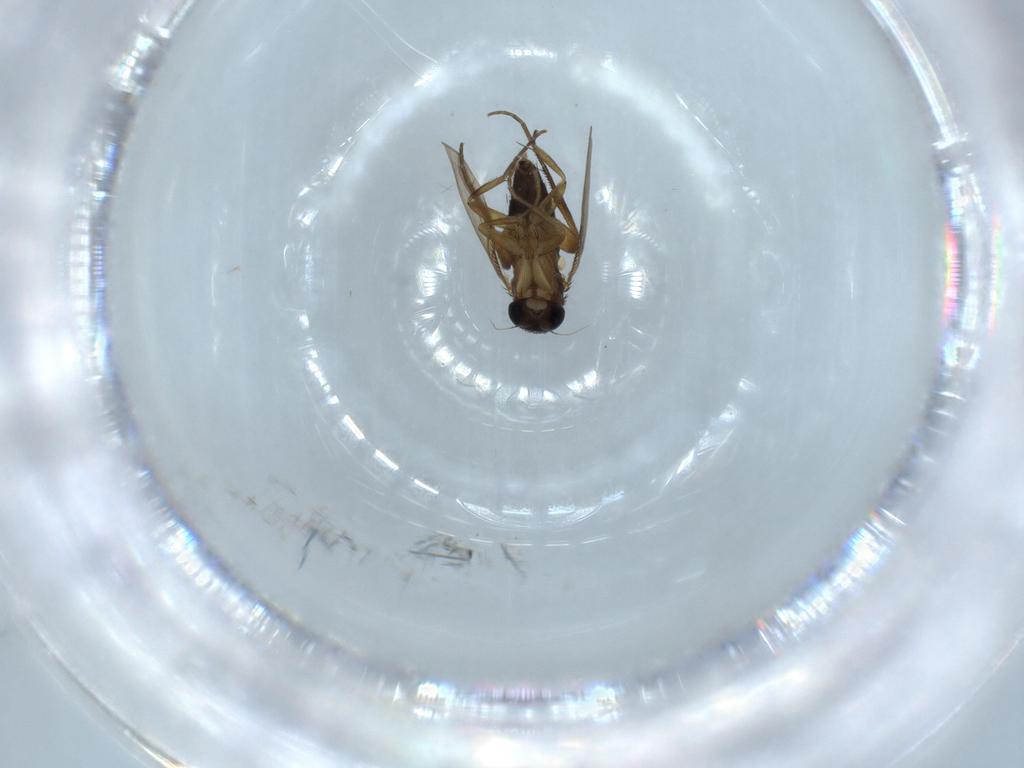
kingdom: Animalia
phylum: Arthropoda
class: Insecta
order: Diptera
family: Phoridae
